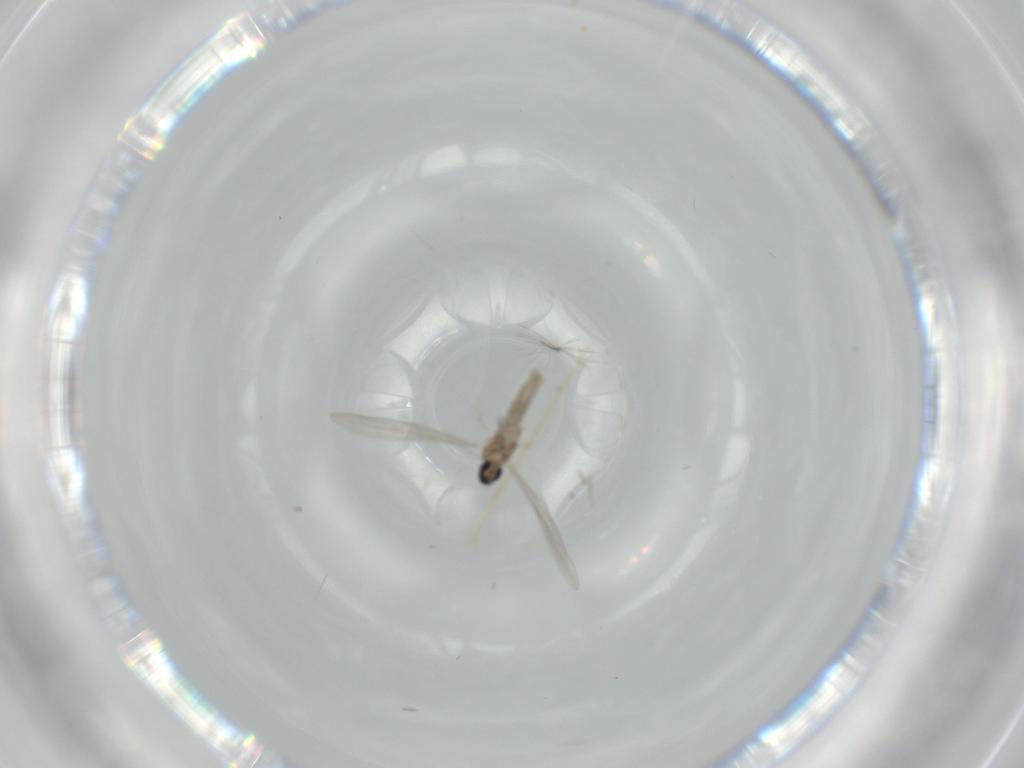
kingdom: Animalia
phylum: Arthropoda
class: Insecta
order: Diptera
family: Cecidomyiidae
